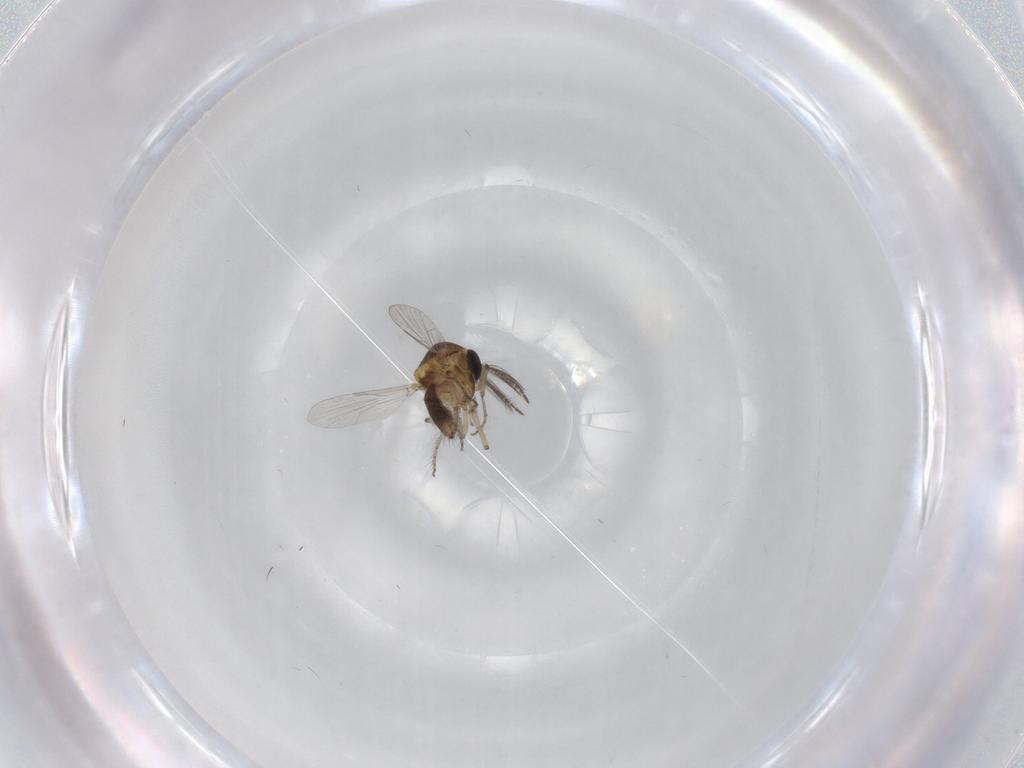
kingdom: Animalia
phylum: Arthropoda
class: Insecta
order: Diptera
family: Ceratopogonidae
